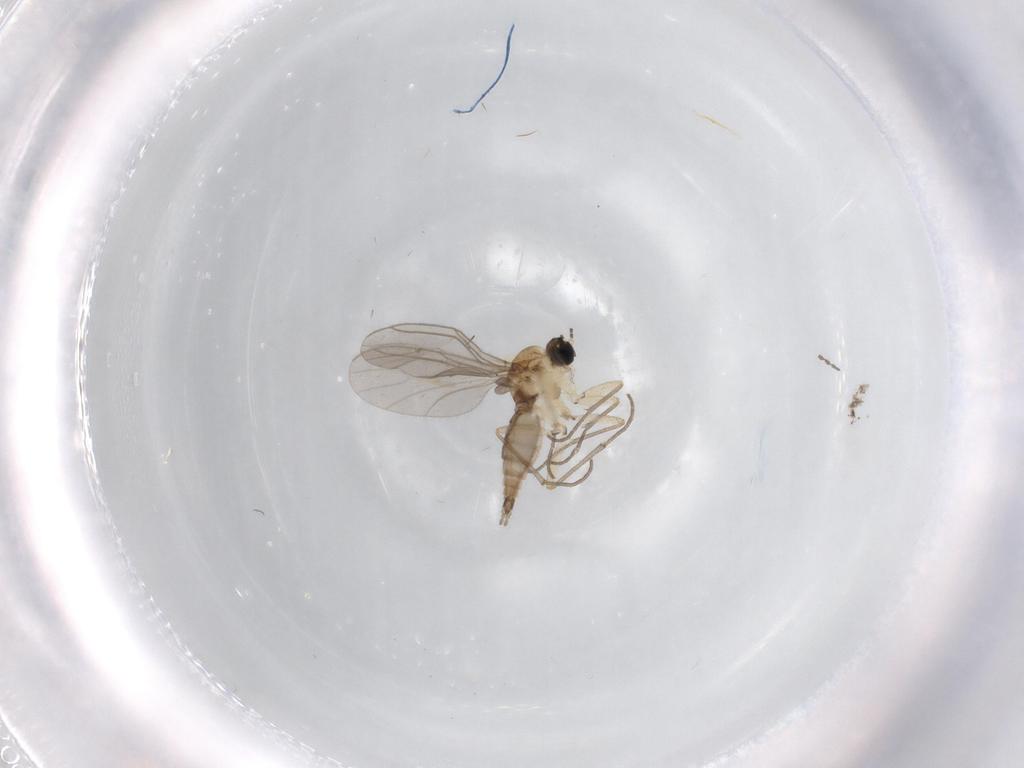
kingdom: Animalia
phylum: Arthropoda
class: Insecta
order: Diptera
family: Sciaridae
